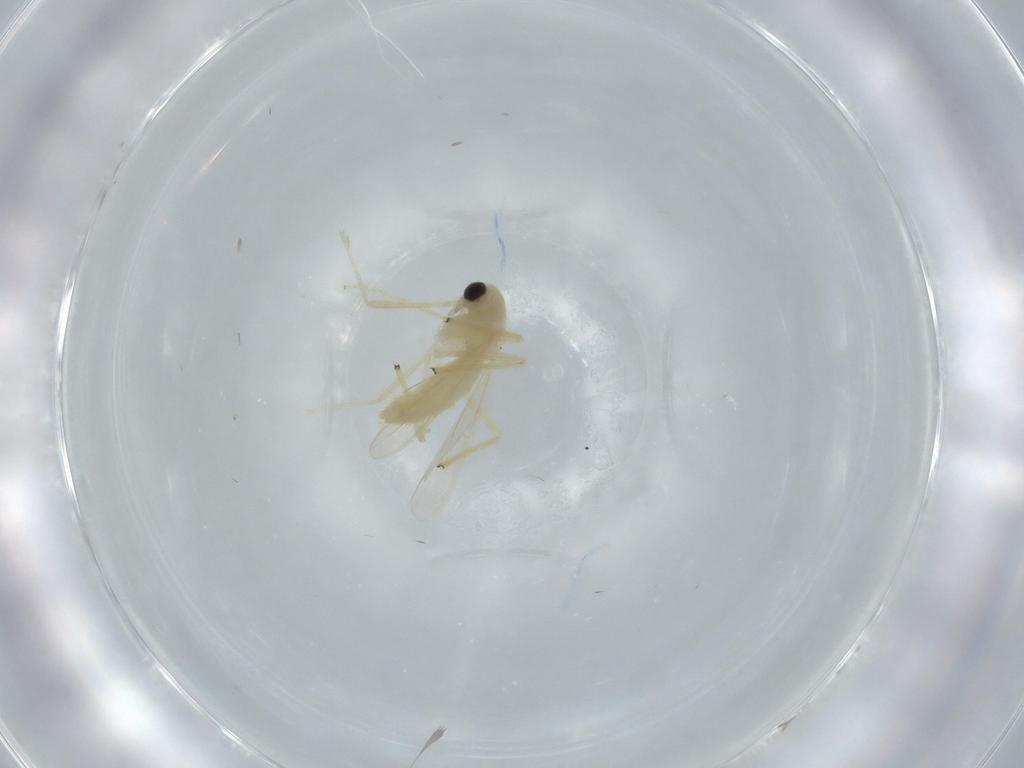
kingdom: Animalia
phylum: Arthropoda
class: Insecta
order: Diptera
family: Chironomidae
